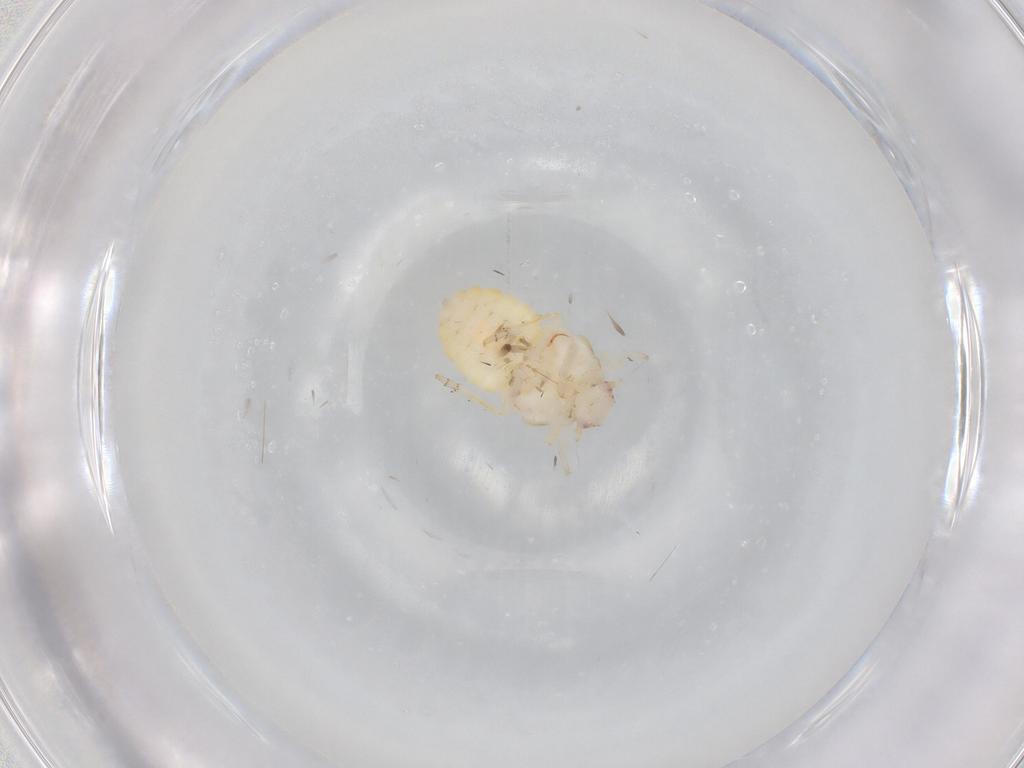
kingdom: Animalia
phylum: Arthropoda
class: Insecta
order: Hemiptera
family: Flatidae
